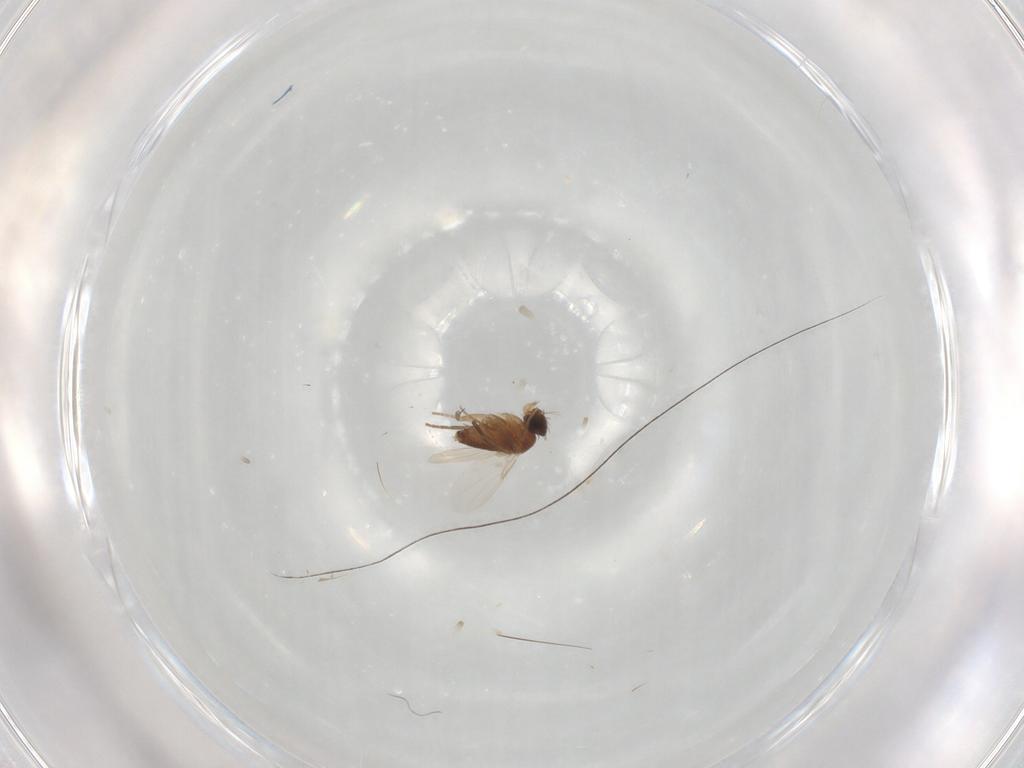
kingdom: Animalia
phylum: Arthropoda
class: Insecta
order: Diptera
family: Phoridae
